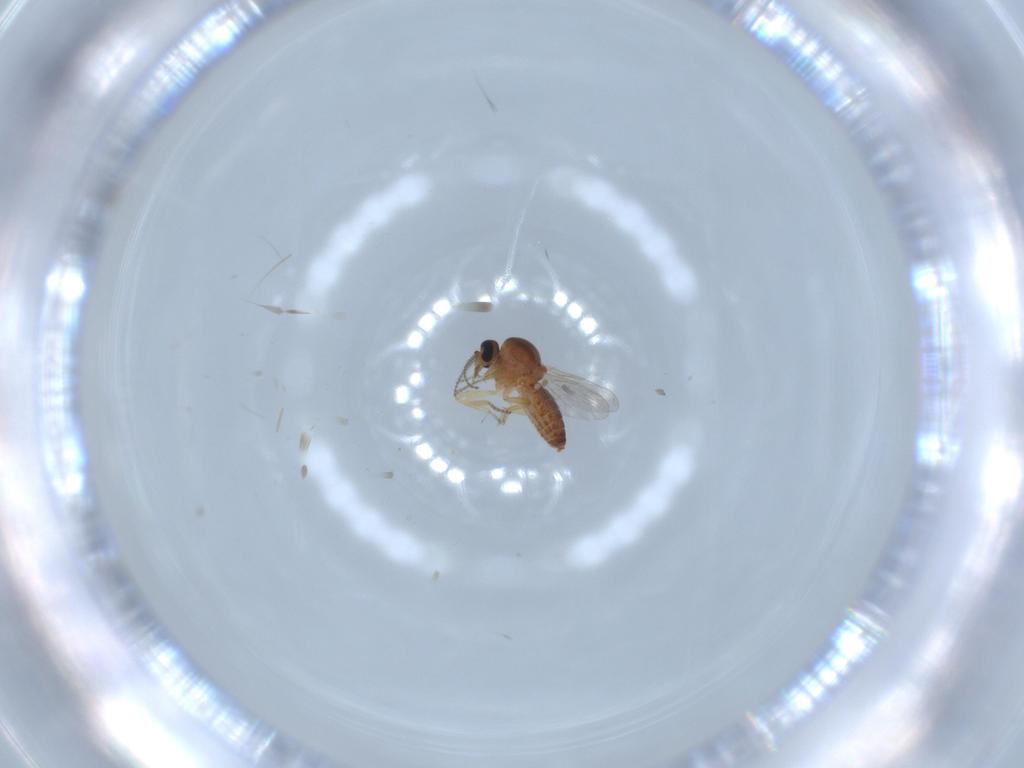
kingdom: Animalia
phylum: Arthropoda
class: Insecta
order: Diptera
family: Ceratopogonidae
